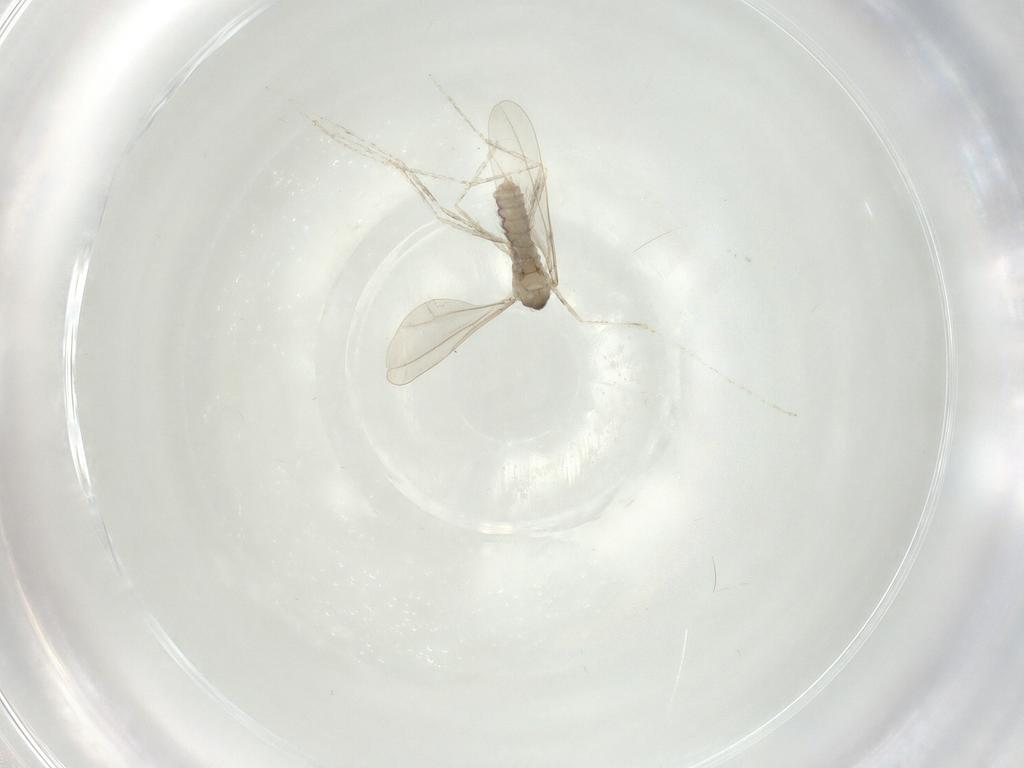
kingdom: Animalia
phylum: Arthropoda
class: Insecta
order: Diptera
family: Cecidomyiidae
